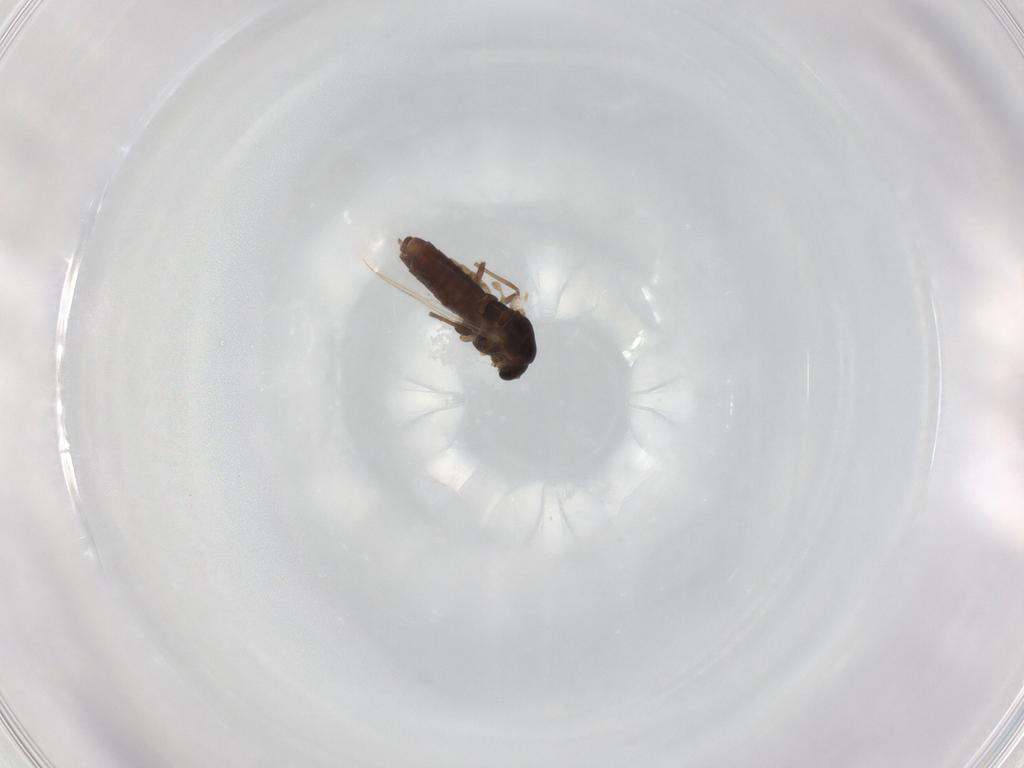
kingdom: Animalia
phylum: Arthropoda
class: Insecta
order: Diptera
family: Chironomidae
